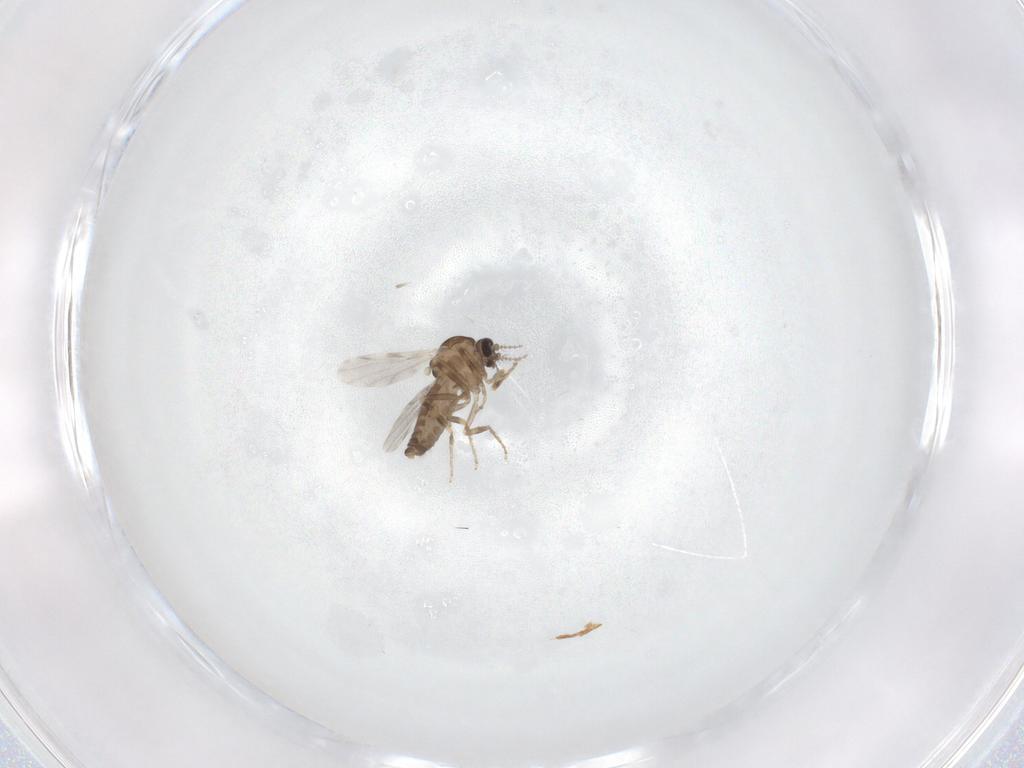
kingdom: Animalia
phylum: Arthropoda
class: Insecta
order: Diptera
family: Ceratopogonidae
